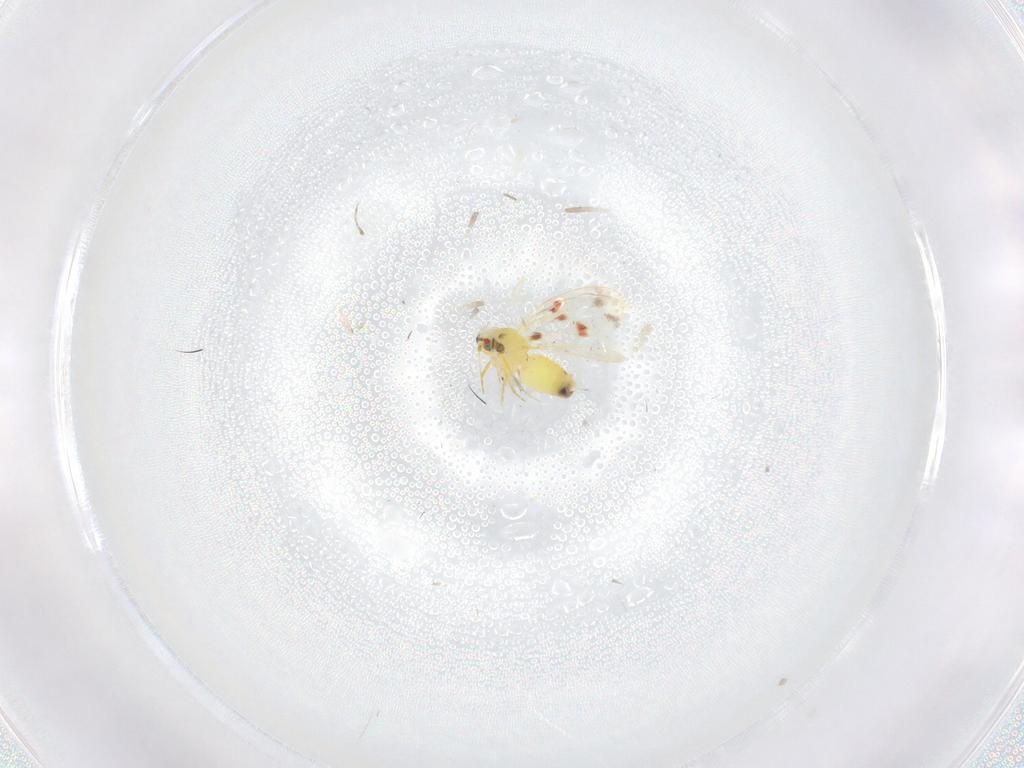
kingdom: Animalia
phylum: Arthropoda
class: Insecta
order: Hemiptera
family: Aleyrodidae
